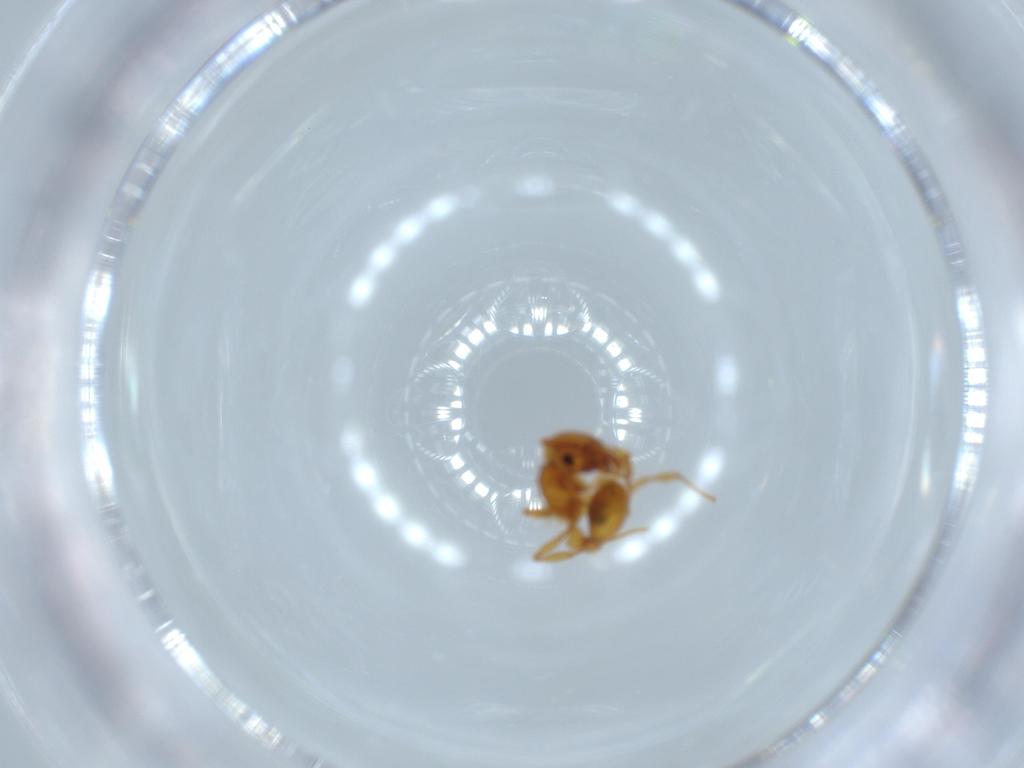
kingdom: Animalia
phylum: Arthropoda
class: Insecta
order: Hymenoptera
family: Formicidae
